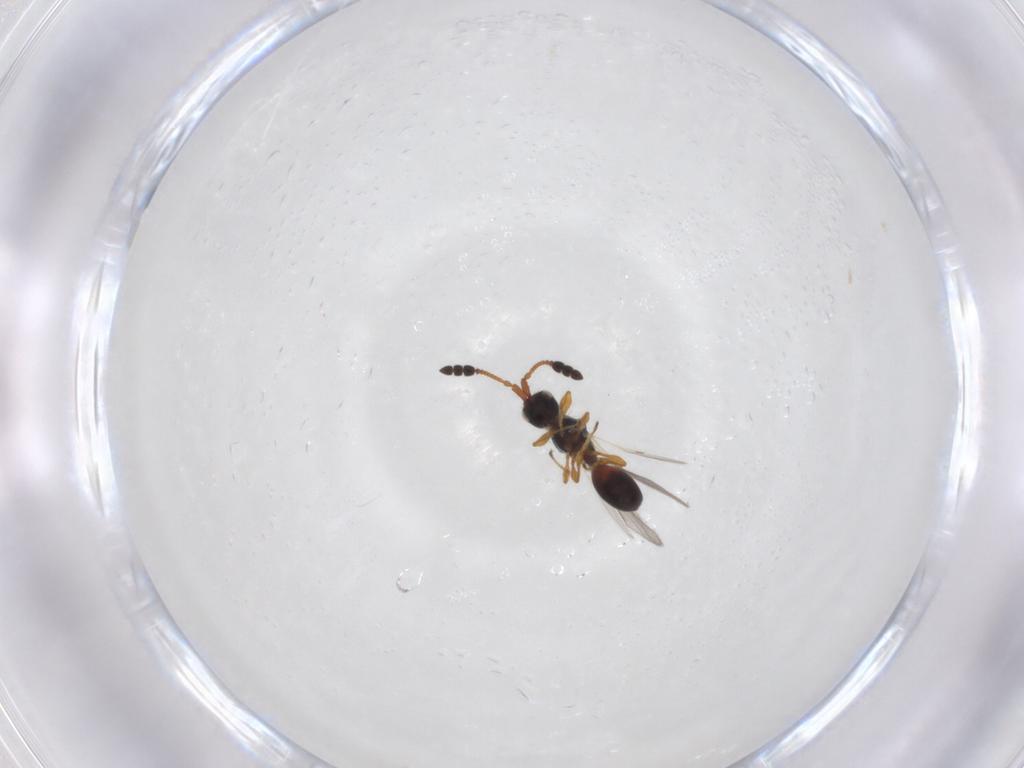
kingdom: Animalia
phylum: Arthropoda
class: Insecta
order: Hymenoptera
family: Diapriidae
